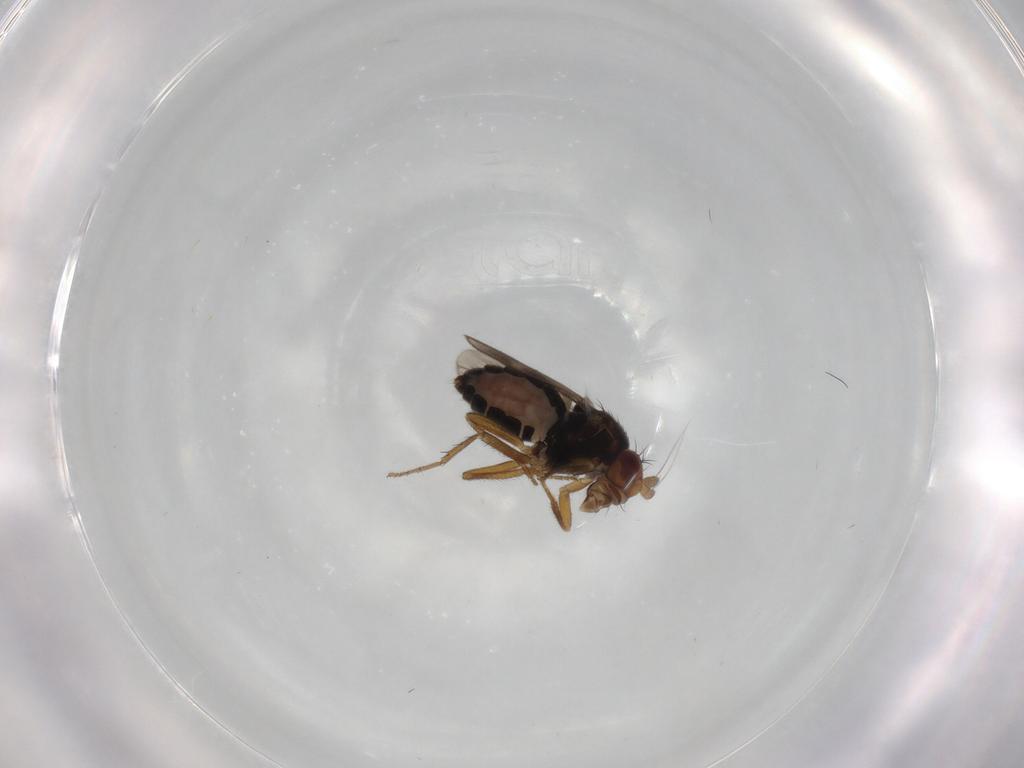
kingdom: Animalia
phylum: Arthropoda
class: Insecta
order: Diptera
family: Sphaeroceridae
